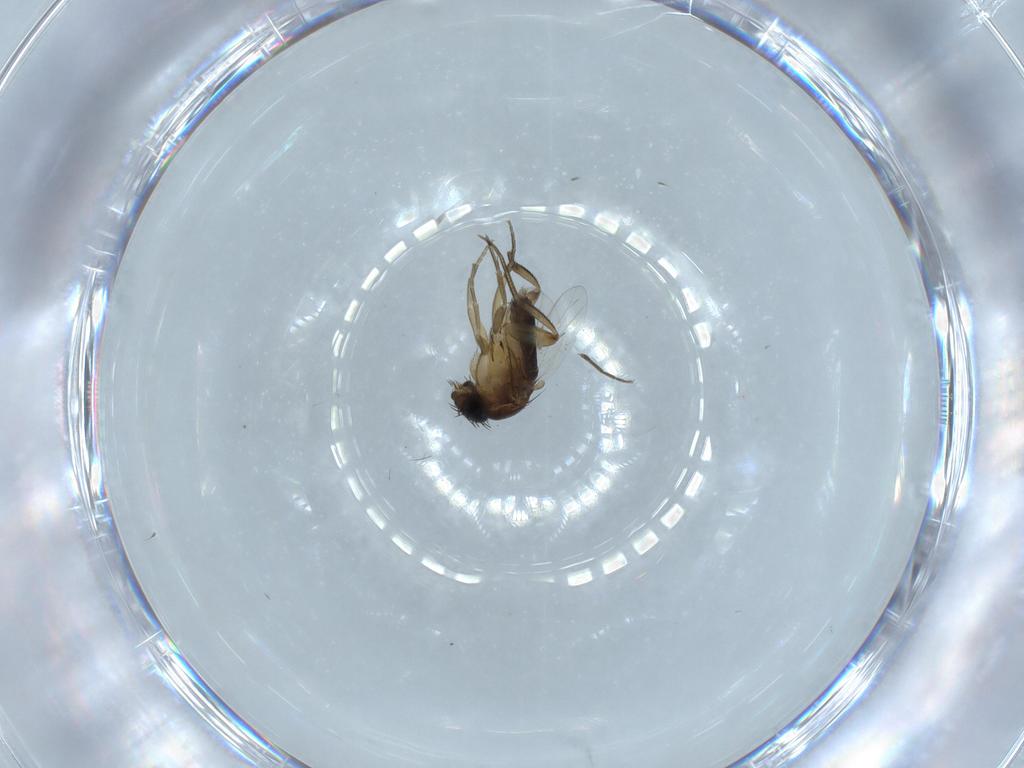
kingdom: Animalia
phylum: Arthropoda
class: Insecta
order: Diptera
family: Phoridae
